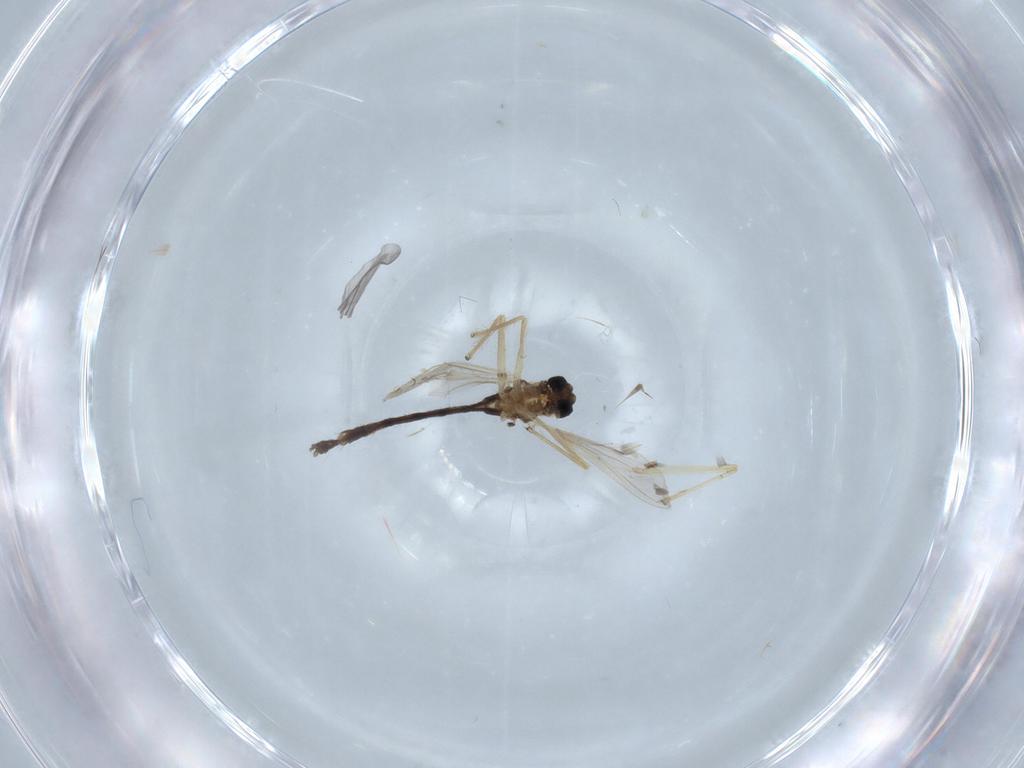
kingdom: Animalia
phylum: Arthropoda
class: Insecta
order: Diptera
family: Chironomidae
